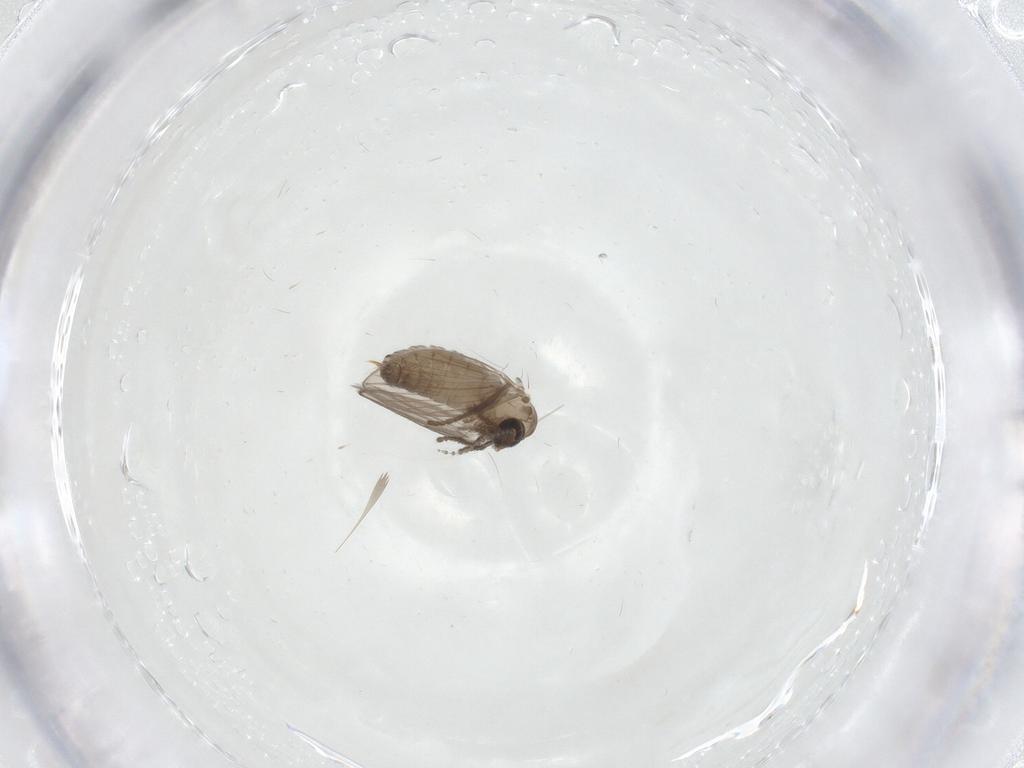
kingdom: Animalia
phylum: Arthropoda
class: Insecta
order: Diptera
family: Psychodidae
